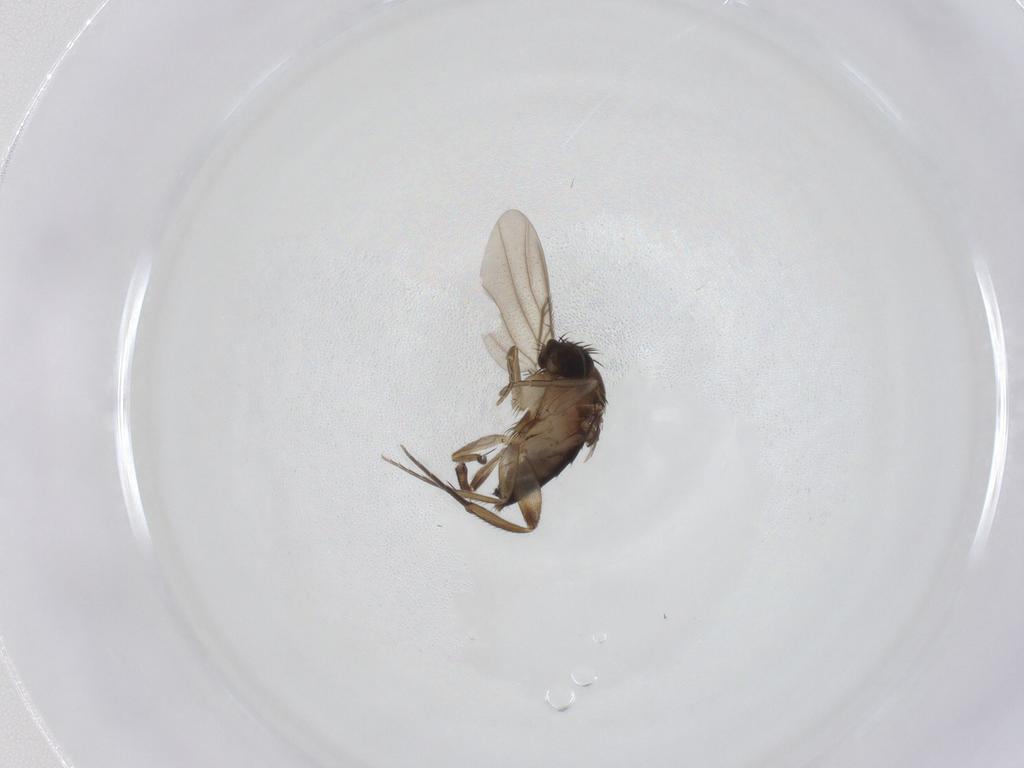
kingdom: Animalia
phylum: Arthropoda
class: Insecta
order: Diptera
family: Phoridae
